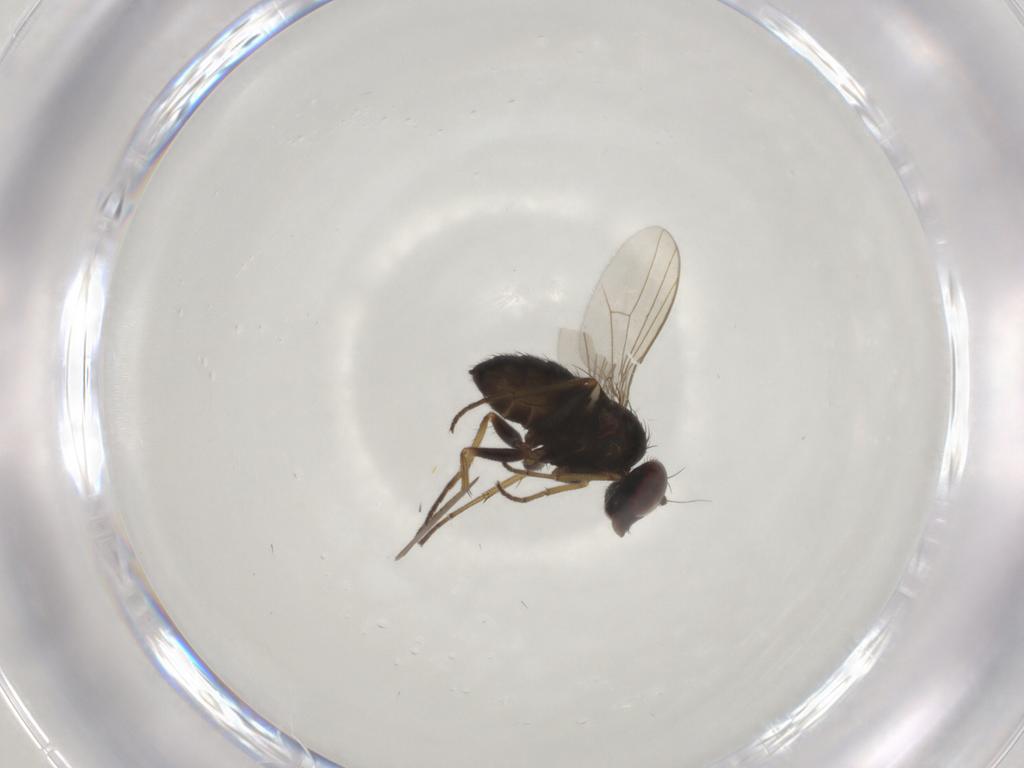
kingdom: Animalia
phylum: Arthropoda
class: Insecta
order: Diptera
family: Dolichopodidae
